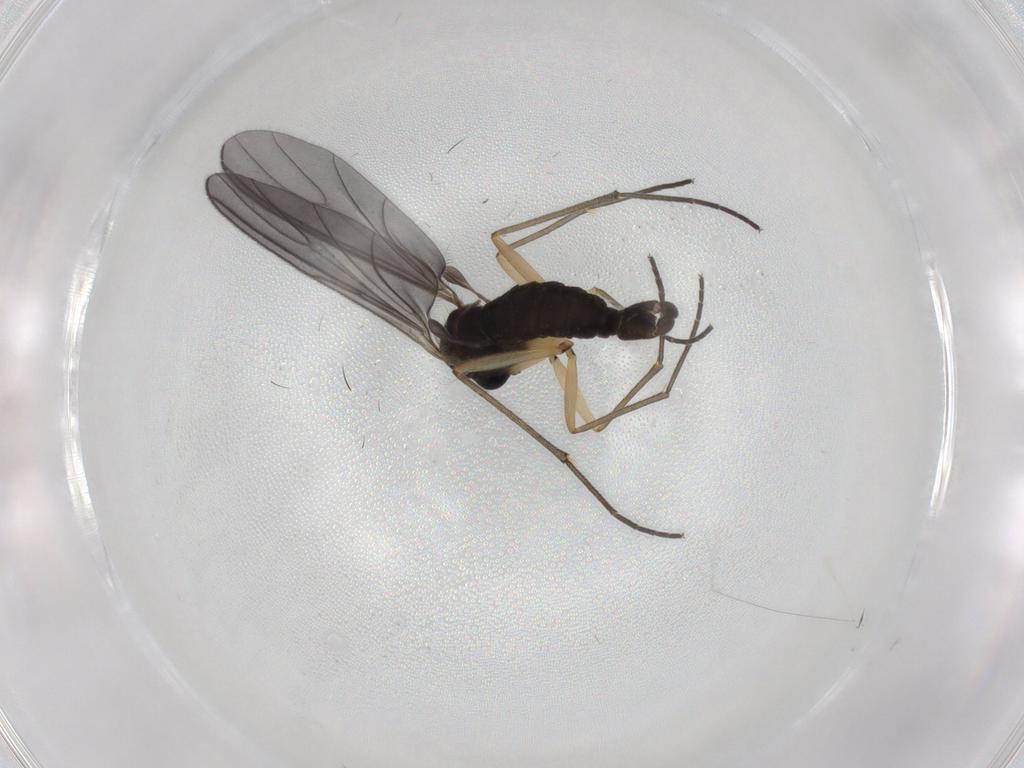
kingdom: Animalia
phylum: Arthropoda
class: Insecta
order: Diptera
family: Sciaridae
